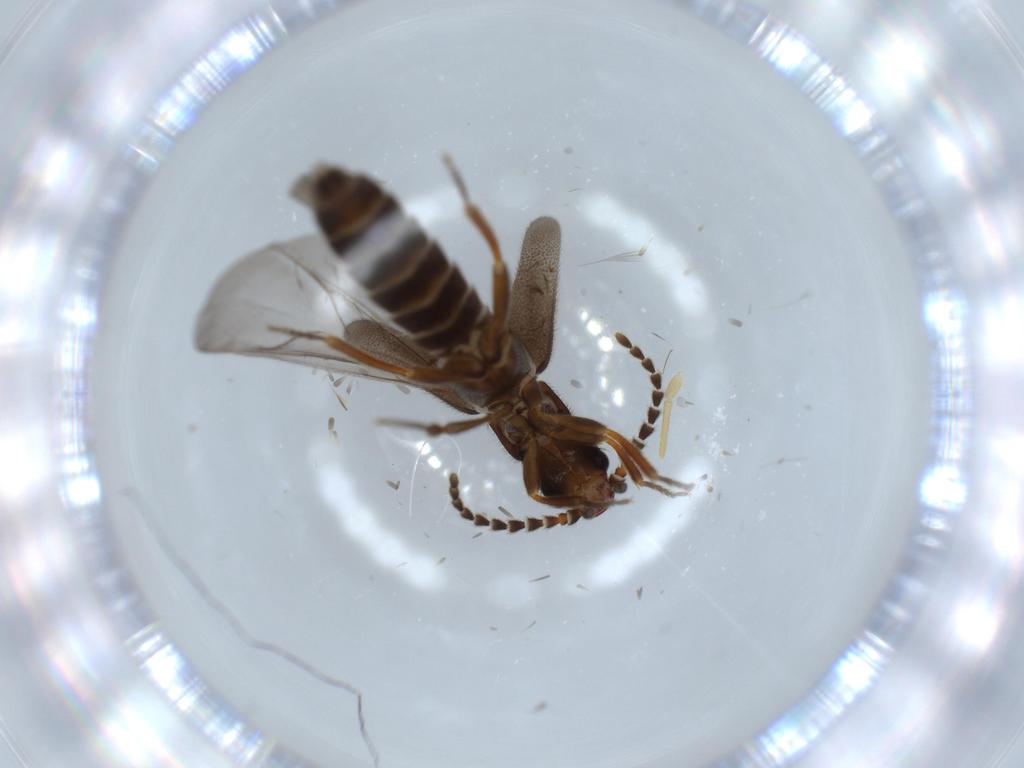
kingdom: Animalia
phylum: Arthropoda
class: Insecta
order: Coleoptera
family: Omethidae
